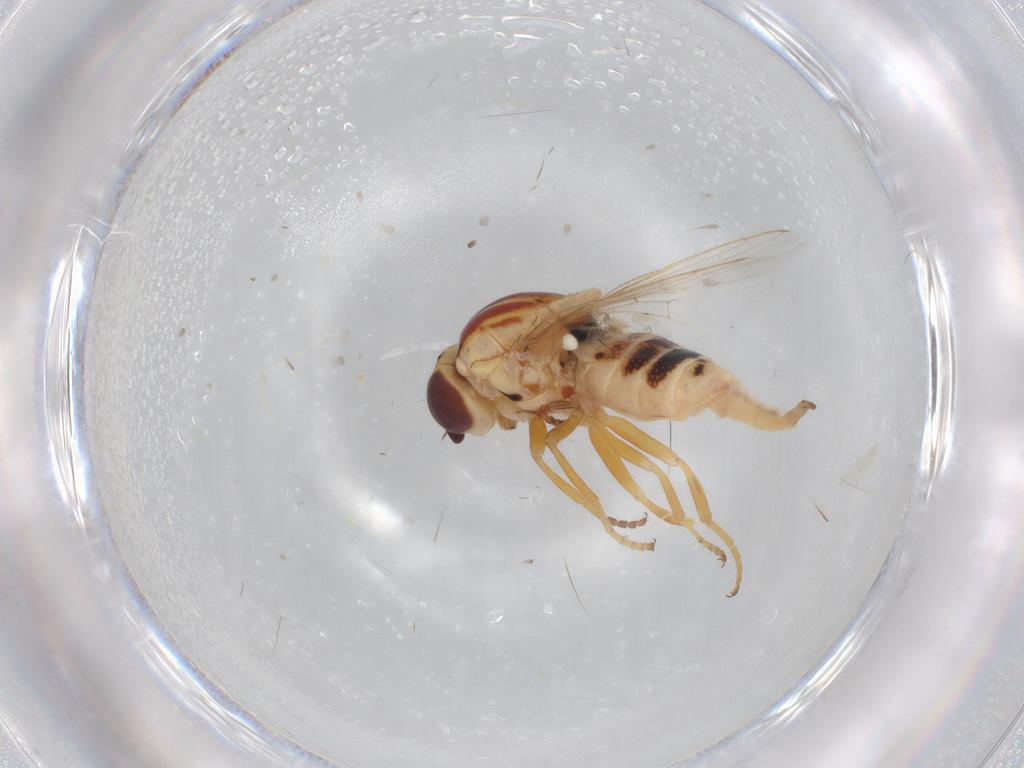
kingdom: Animalia
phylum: Arthropoda
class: Insecta
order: Diptera
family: Chloropidae
